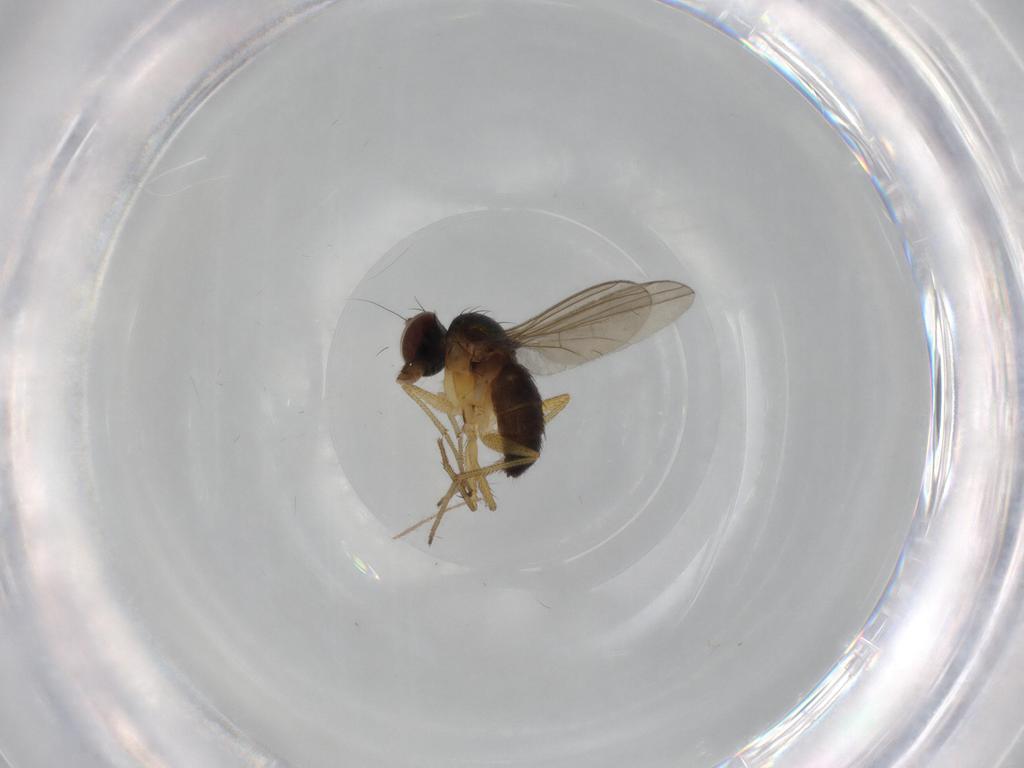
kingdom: Animalia
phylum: Arthropoda
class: Insecta
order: Diptera
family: Dolichopodidae
